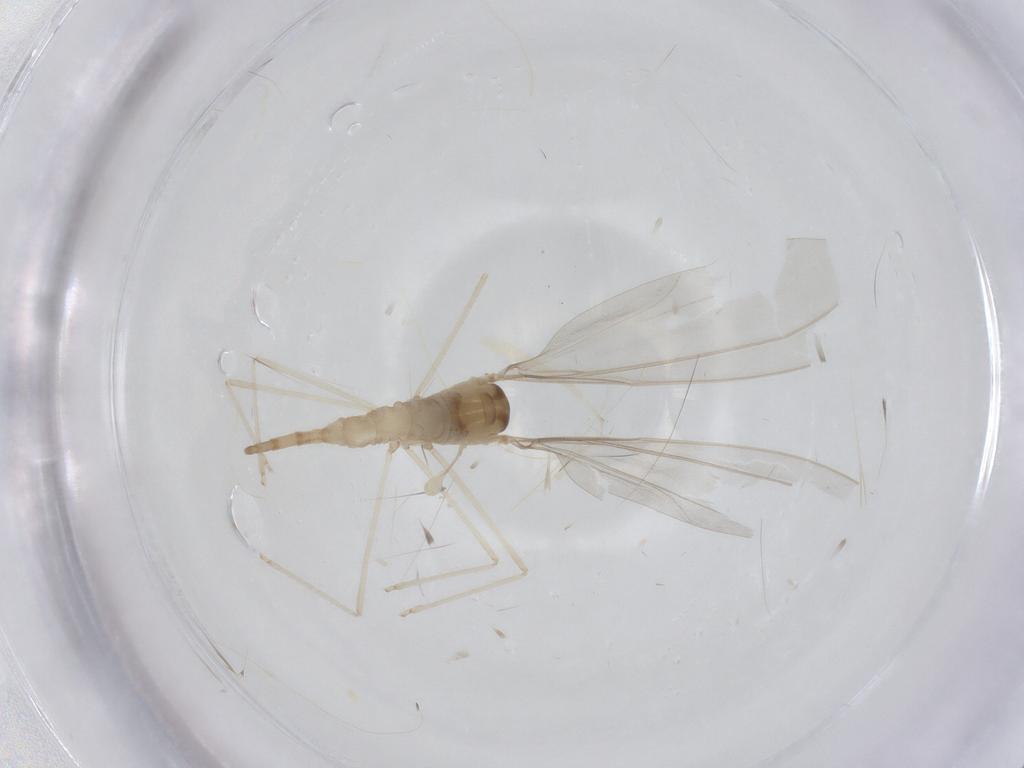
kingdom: Animalia
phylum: Arthropoda
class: Insecta
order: Diptera
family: Cecidomyiidae
